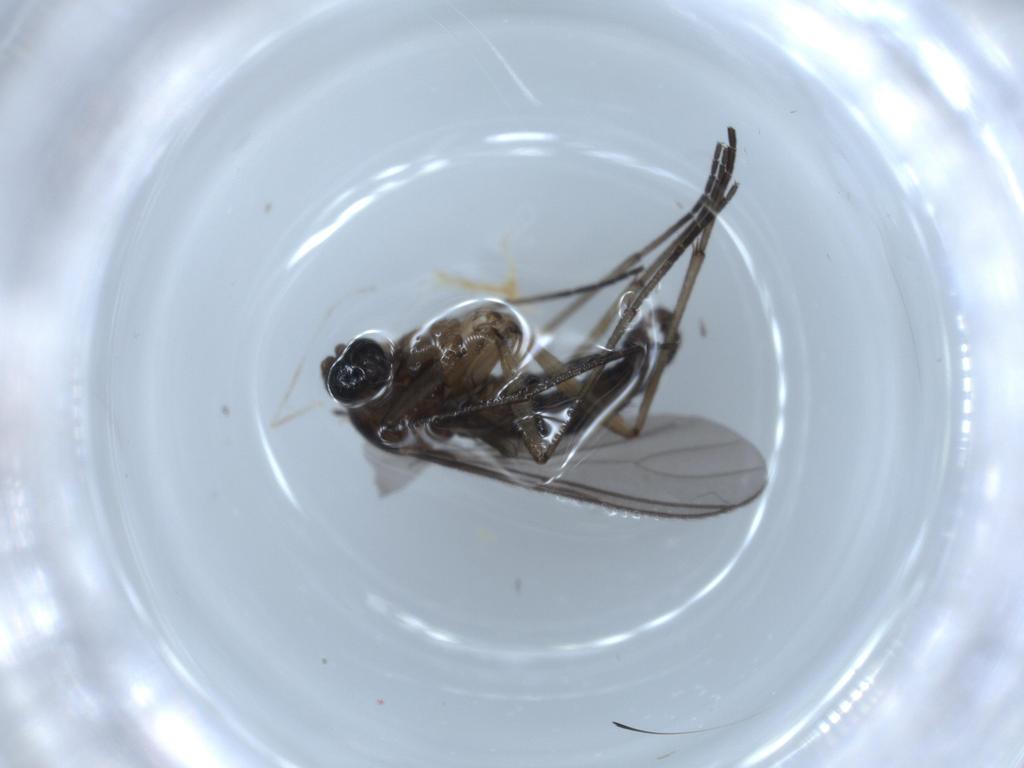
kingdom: Animalia
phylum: Arthropoda
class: Insecta
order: Diptera
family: Sciaridae
